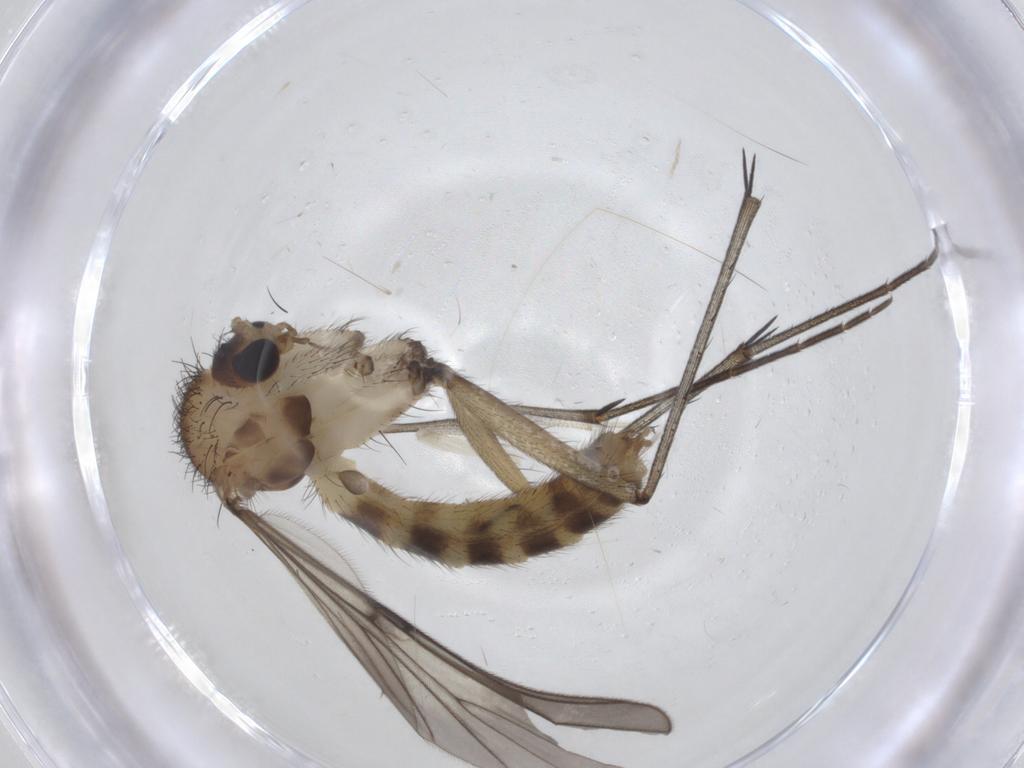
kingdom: Animalia
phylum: Arthropoda
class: Insecta
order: Diptera
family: Mycetophilidae
